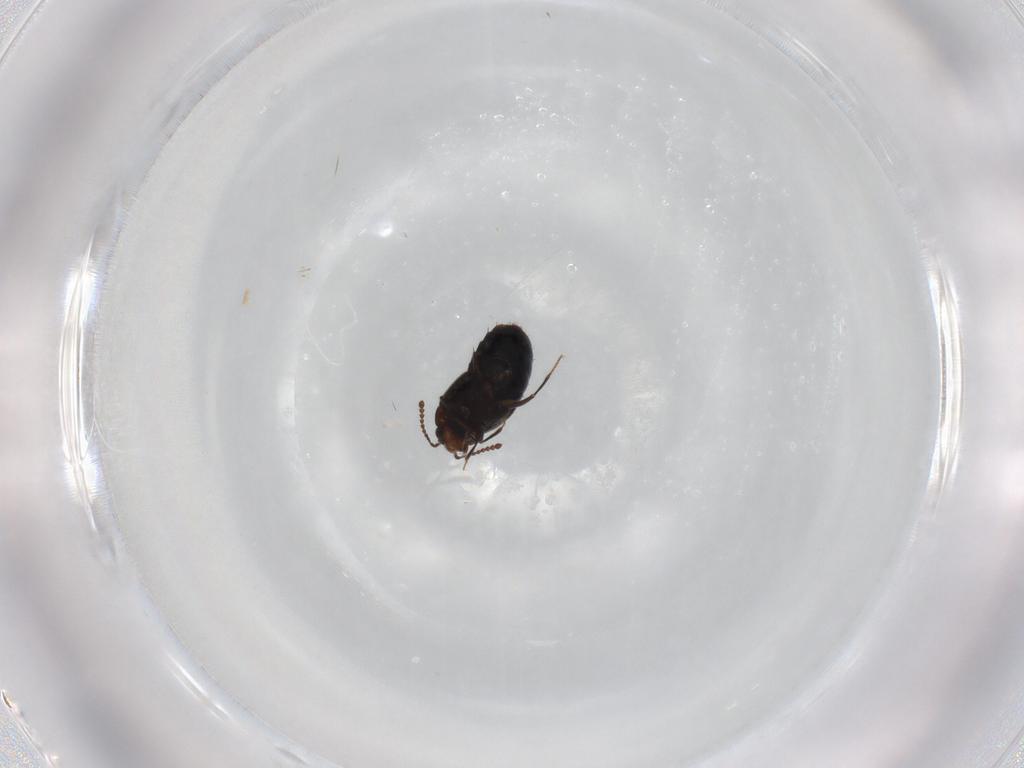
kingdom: Animalia
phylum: Arthropoda
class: Insecta
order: Coleoptera
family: Staphylinidae
